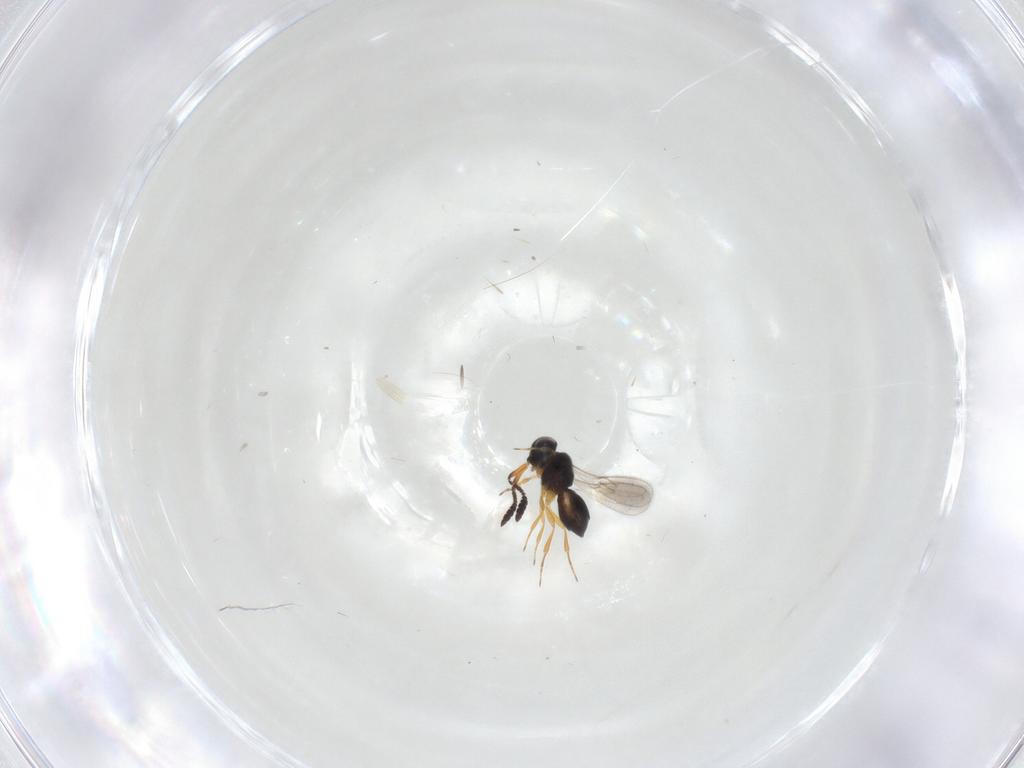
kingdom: Animalia
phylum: Arthropoda
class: Insecta
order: Hymenoptera
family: Scelionidae
